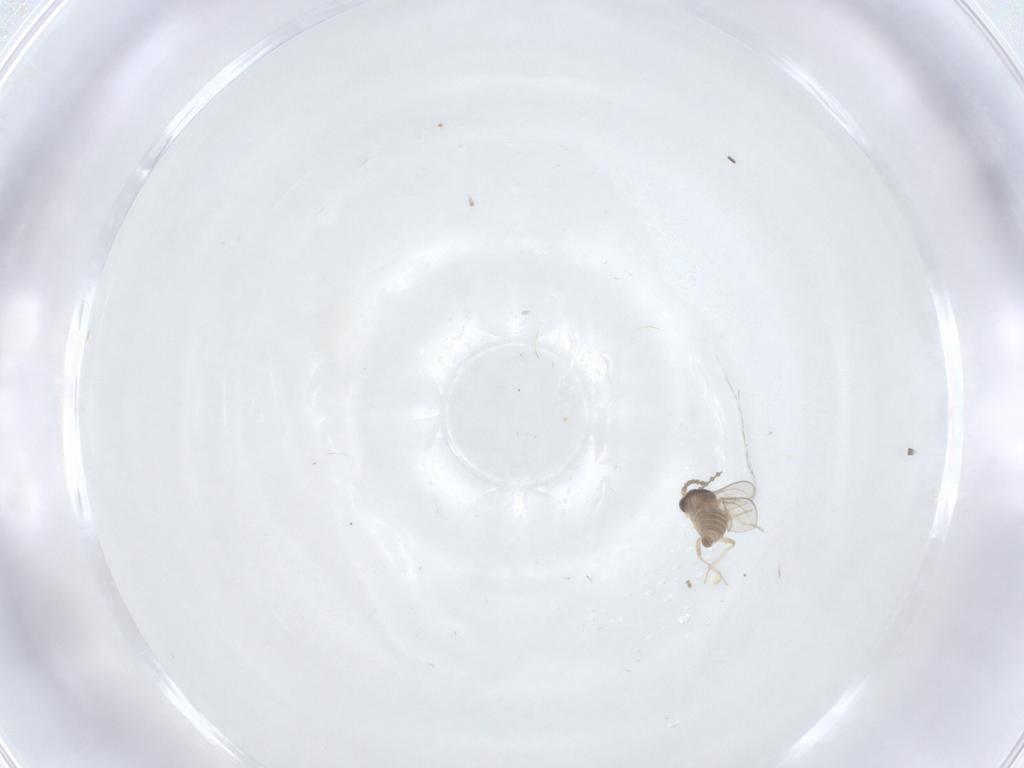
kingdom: Animalia
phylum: Arthropoda
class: Insecta
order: Diptera
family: Cecidomyiidae
